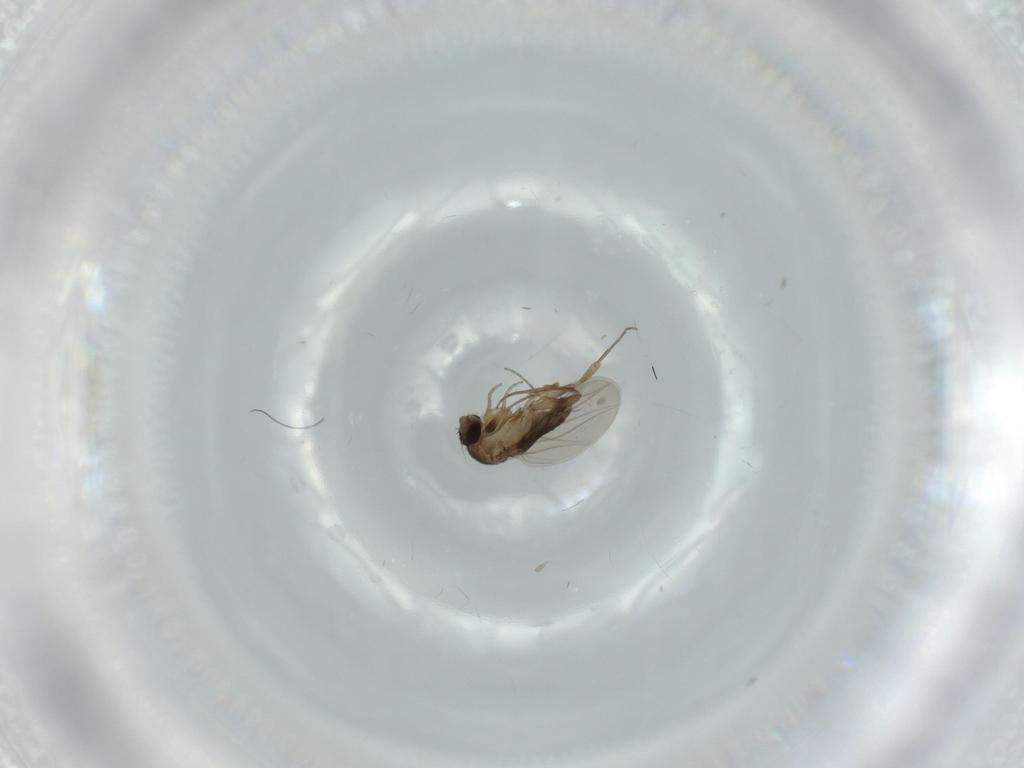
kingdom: Animalia
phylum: Arthropoda
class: Insecta
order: Diptera
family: Phoridae
